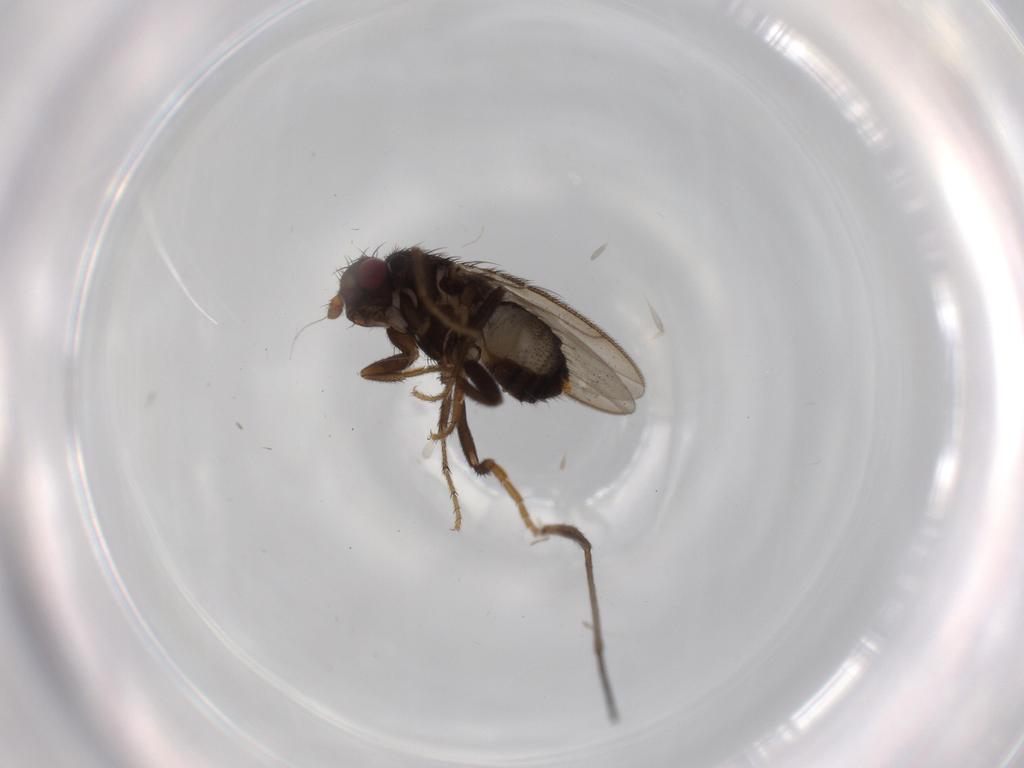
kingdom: Animalia
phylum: Arthropoda
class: Insecta
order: Diptera
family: Sphaeroceridae
